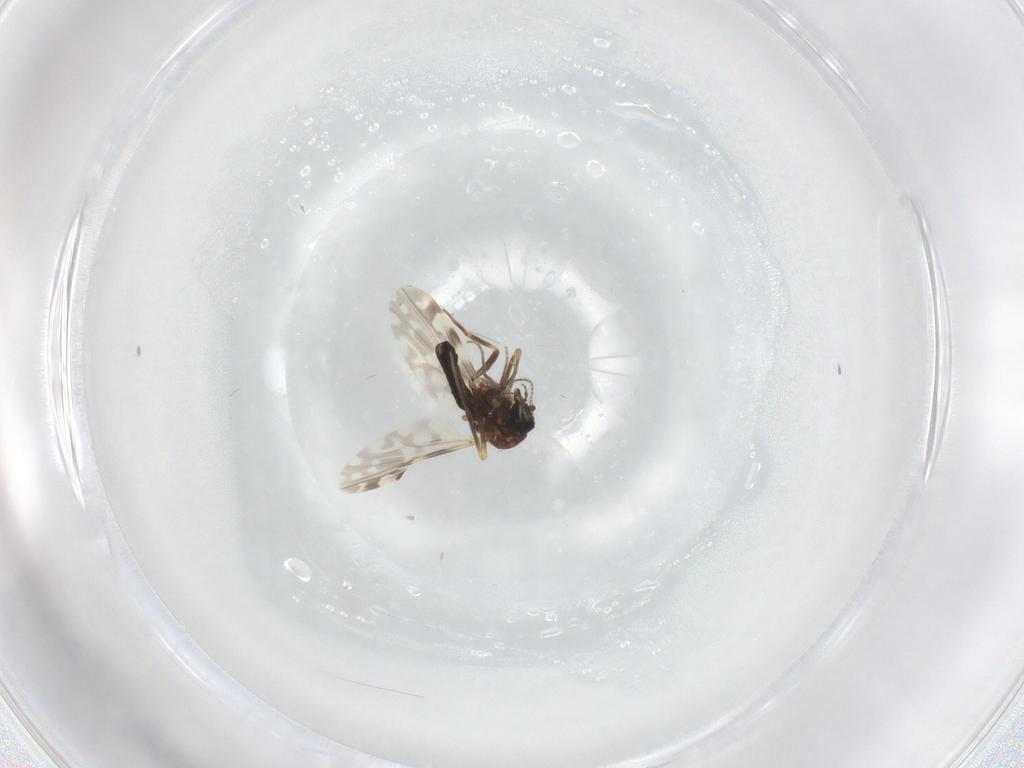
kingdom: Animalia
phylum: Arthropoda
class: Insecta
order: Diptera
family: Ceratopogonidae
